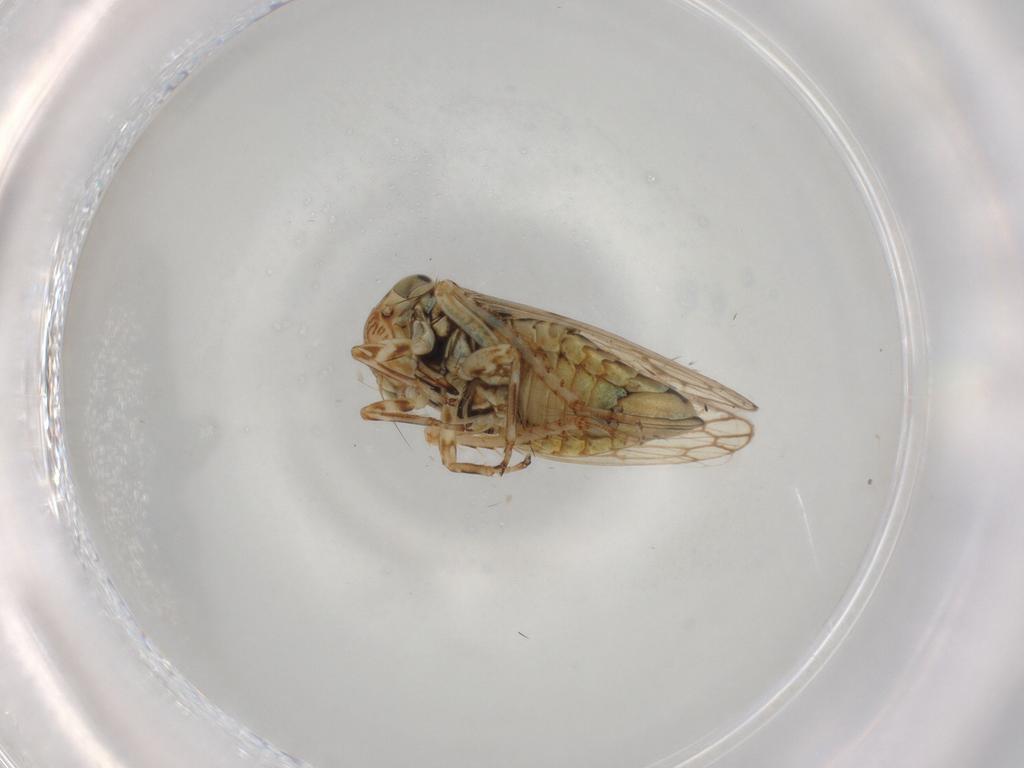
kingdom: Animalia
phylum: Arthropoda
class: Insecta
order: Hemiptera
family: Cicadellidae
